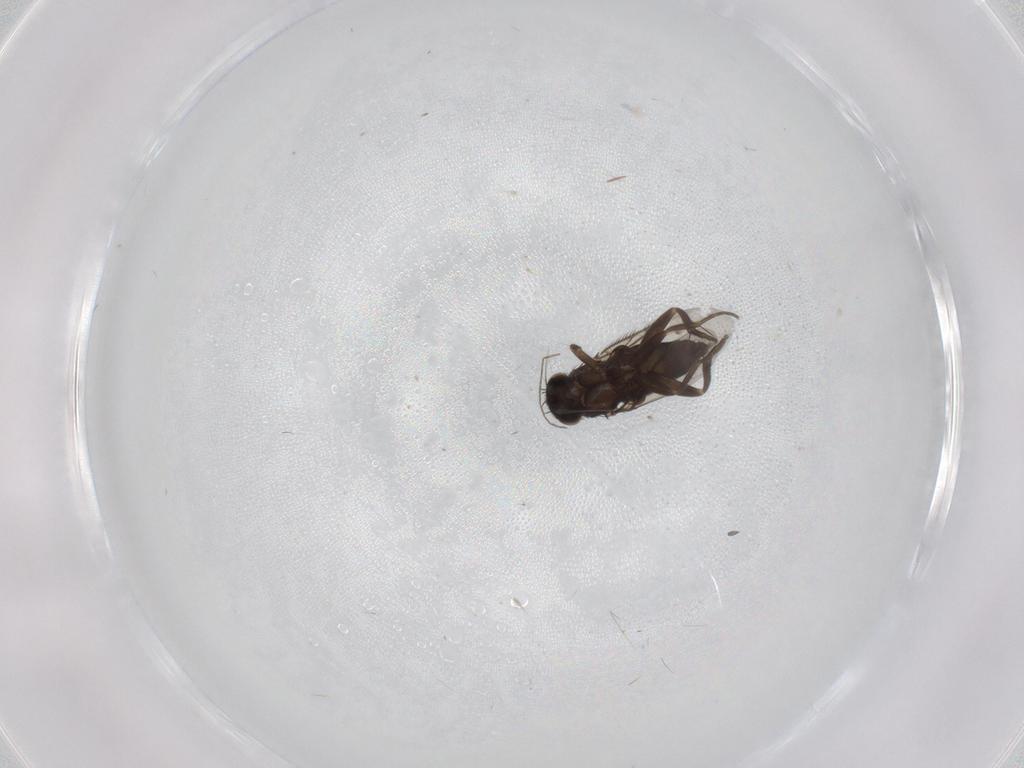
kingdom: Animalia
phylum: Arthropoda
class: Insecta
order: Diptera
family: Phoridae
